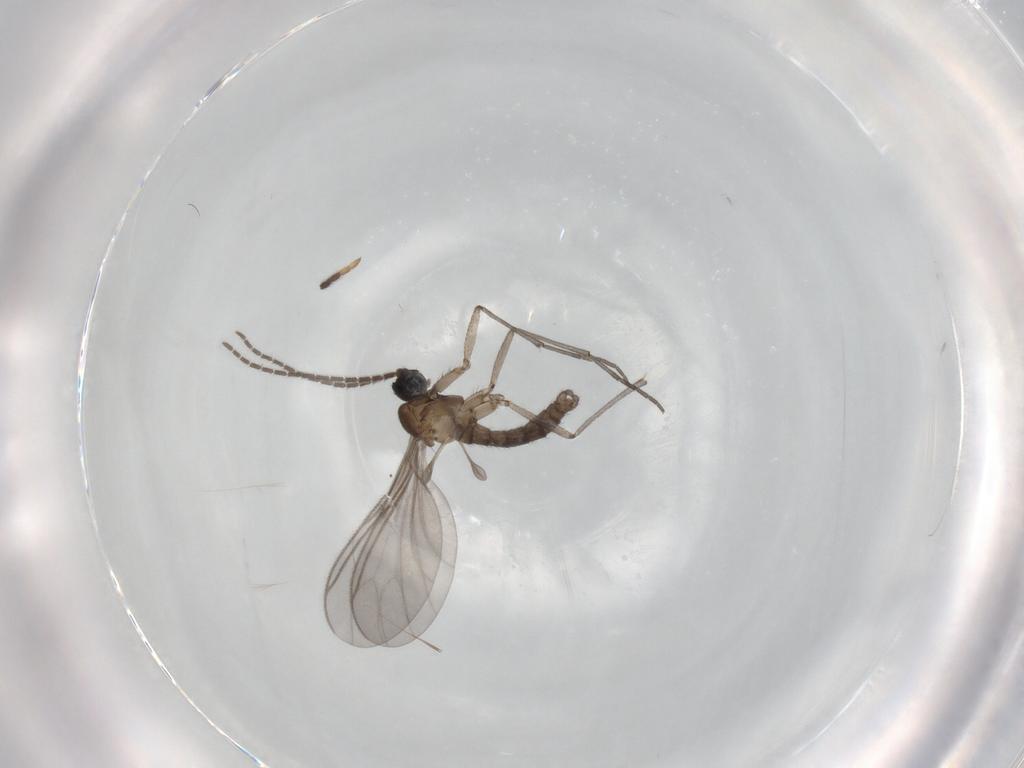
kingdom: Animalia
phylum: Arthropoda
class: Insecta
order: Diptera
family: Sciaridae
